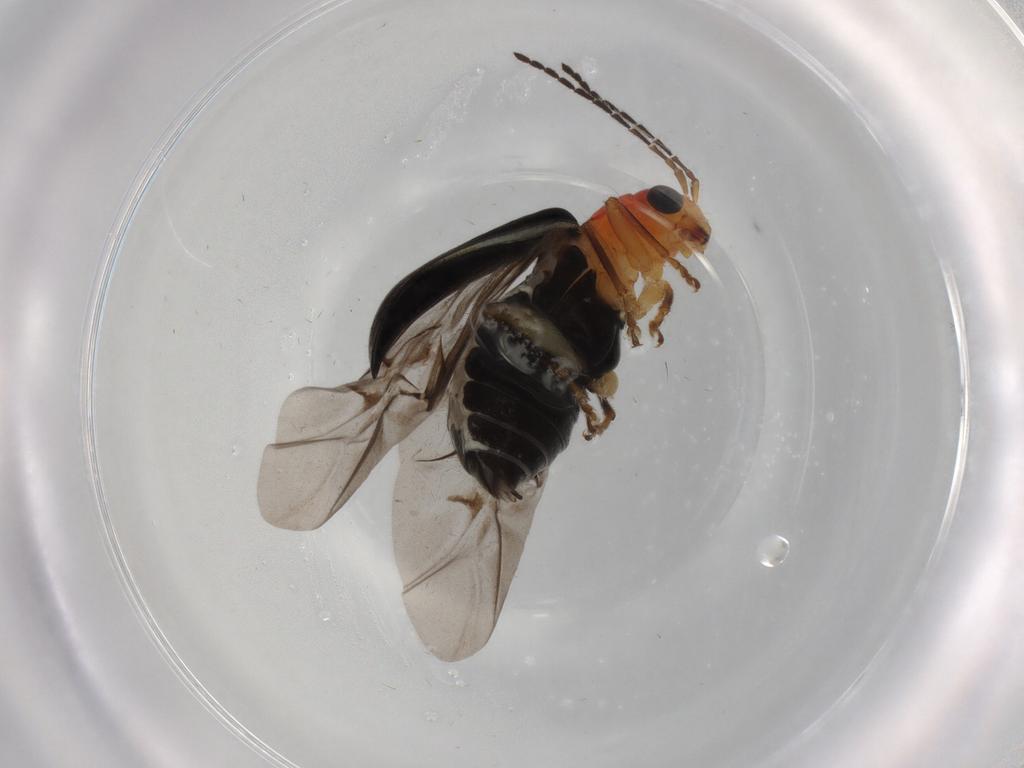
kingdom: Animalia
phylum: Arthropoda
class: Insecta
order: Coleoptera
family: Chrysomelidae
